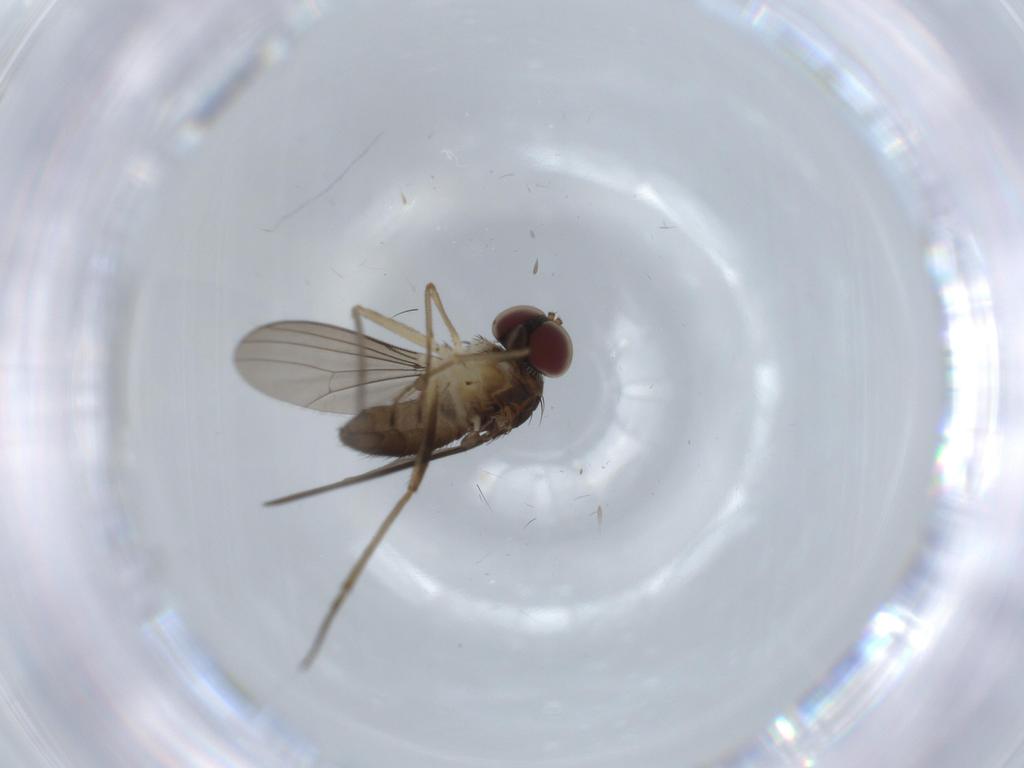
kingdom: Animalia
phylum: Arthropoda
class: Insecta
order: Diptera
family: Dolichopodidae
